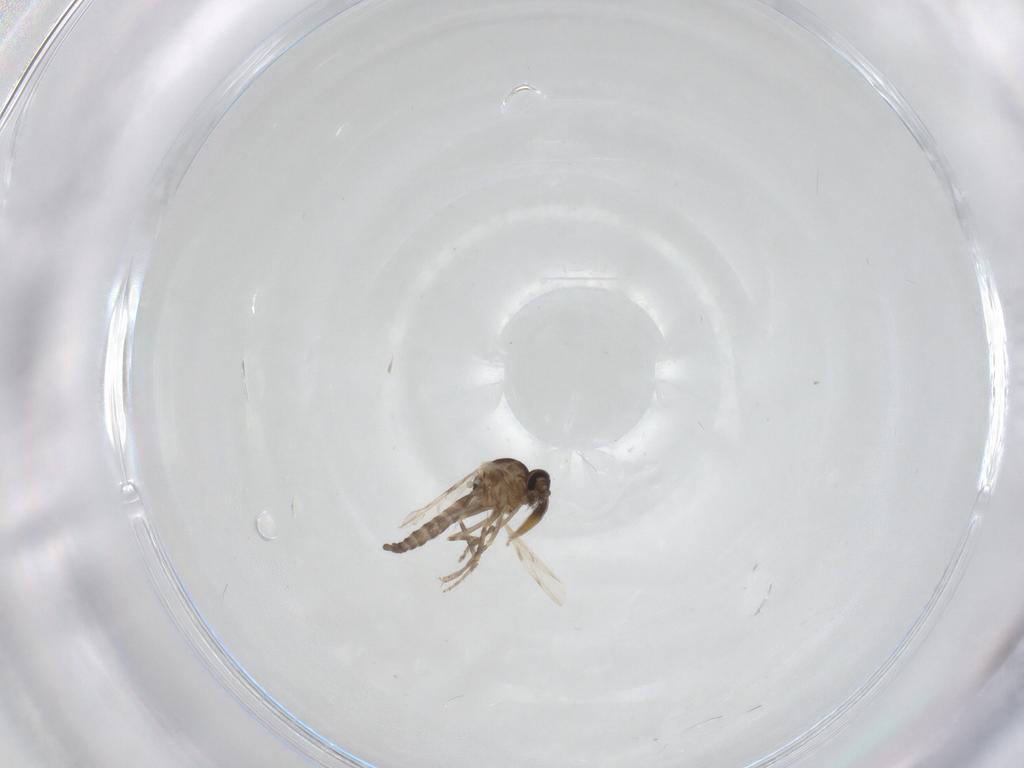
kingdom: Animalia
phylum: Arthropoda
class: Insecta
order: Diptera
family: Ceratopogonidae
